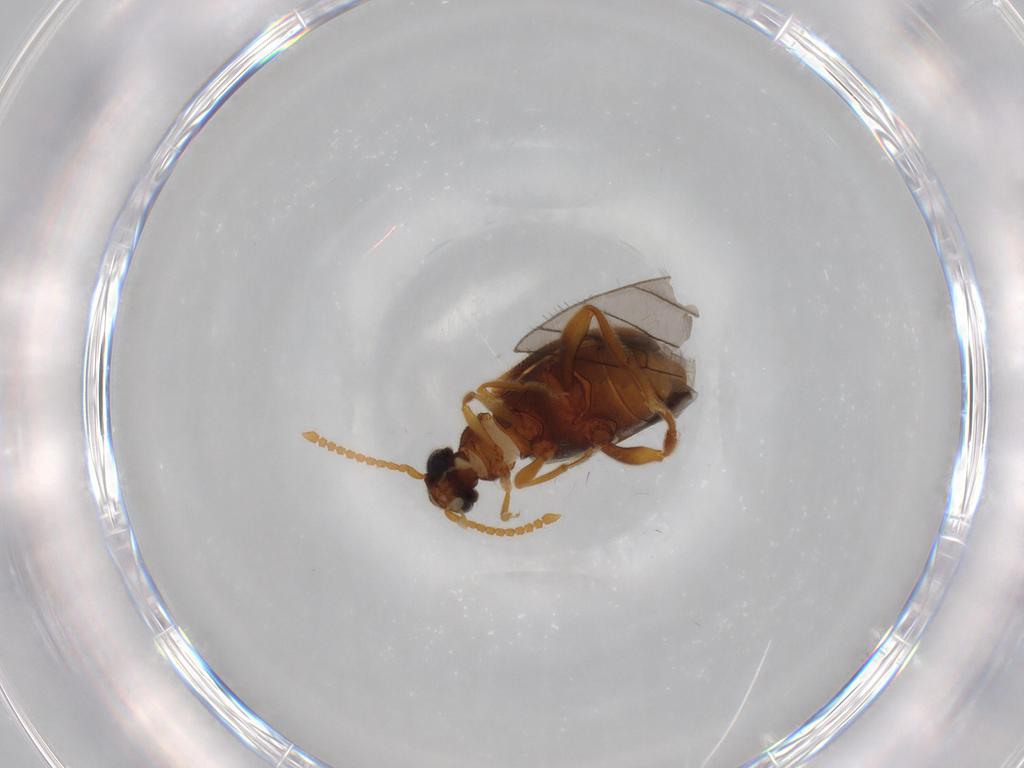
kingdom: Animalia
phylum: Arthropoda
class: Insecta
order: Coleoptera
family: Aderidae
